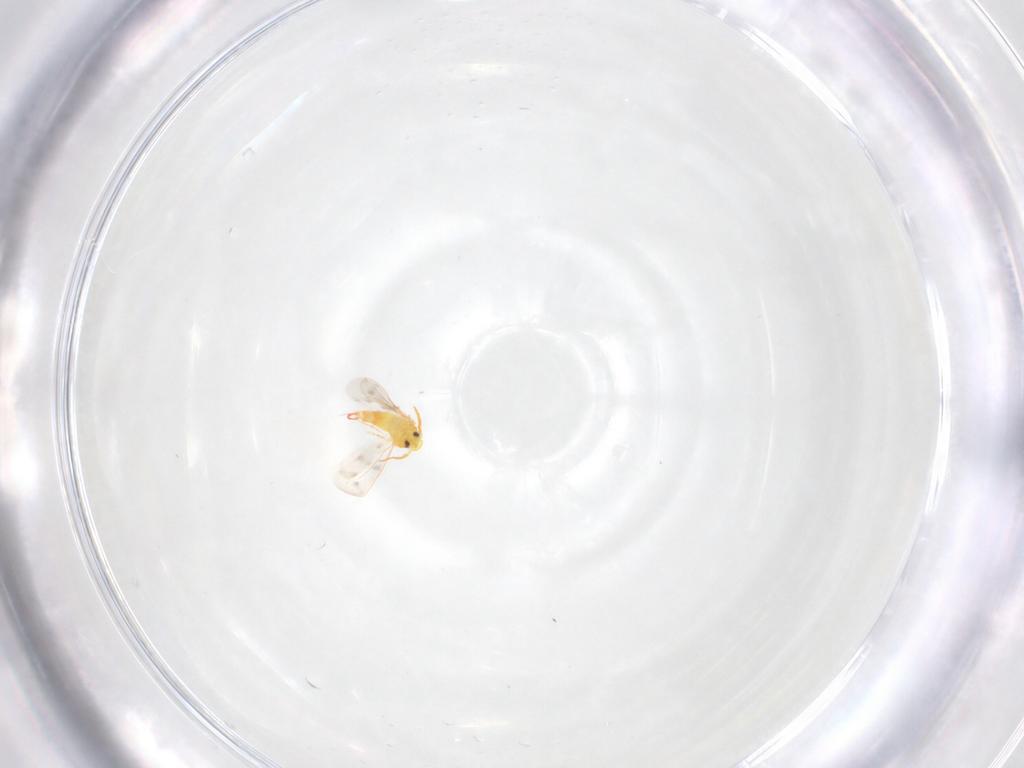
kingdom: Animalia
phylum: Arthropoda
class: Insecta
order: Hemiptera
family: Aleyrodidae
